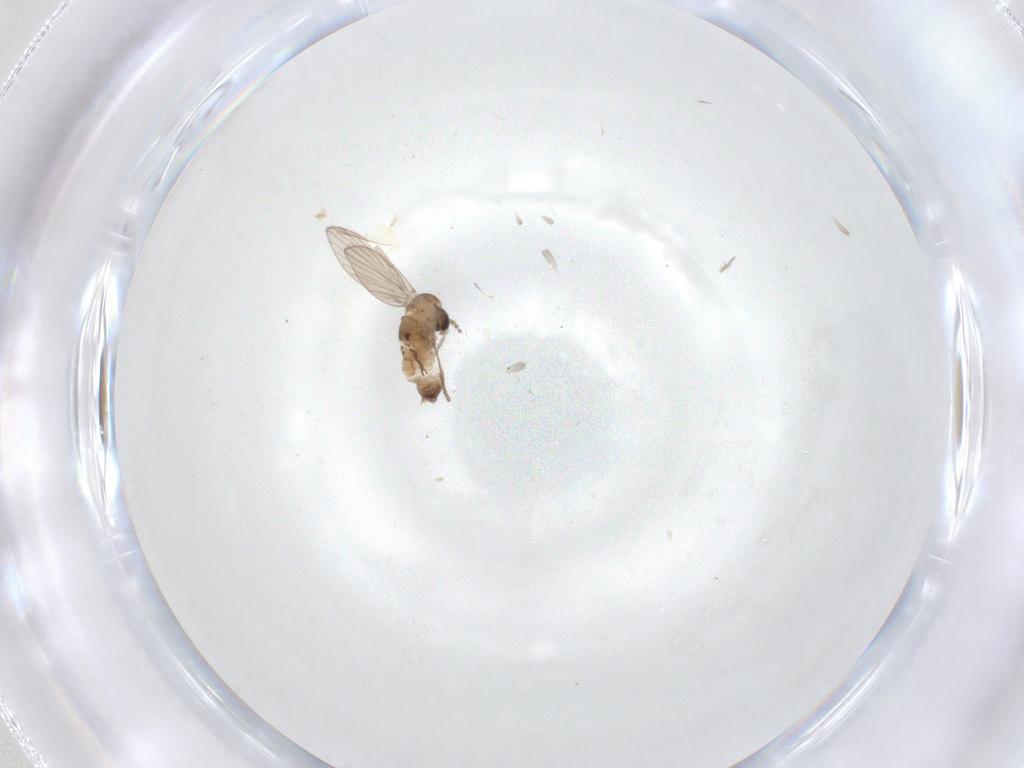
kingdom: Animalia
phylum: Arthropoda
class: Insecta
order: Diptera
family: Psychodidae
